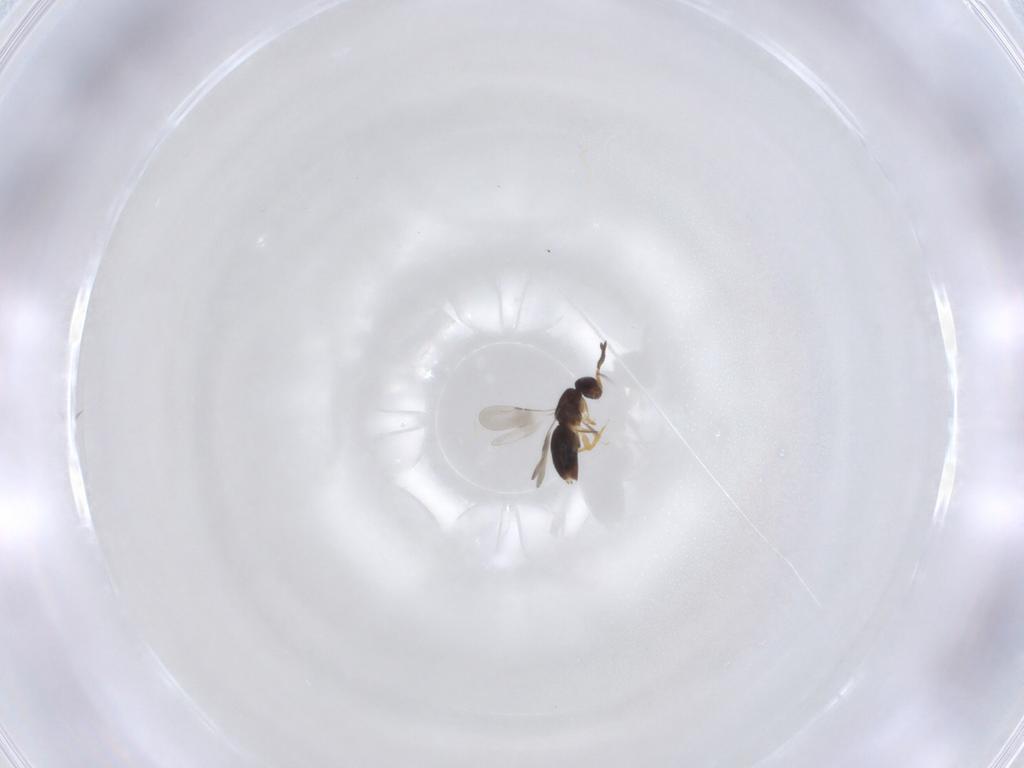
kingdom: Animalia
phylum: Arthropoda
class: Insecta
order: Hymenoptera
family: Diapriidae
